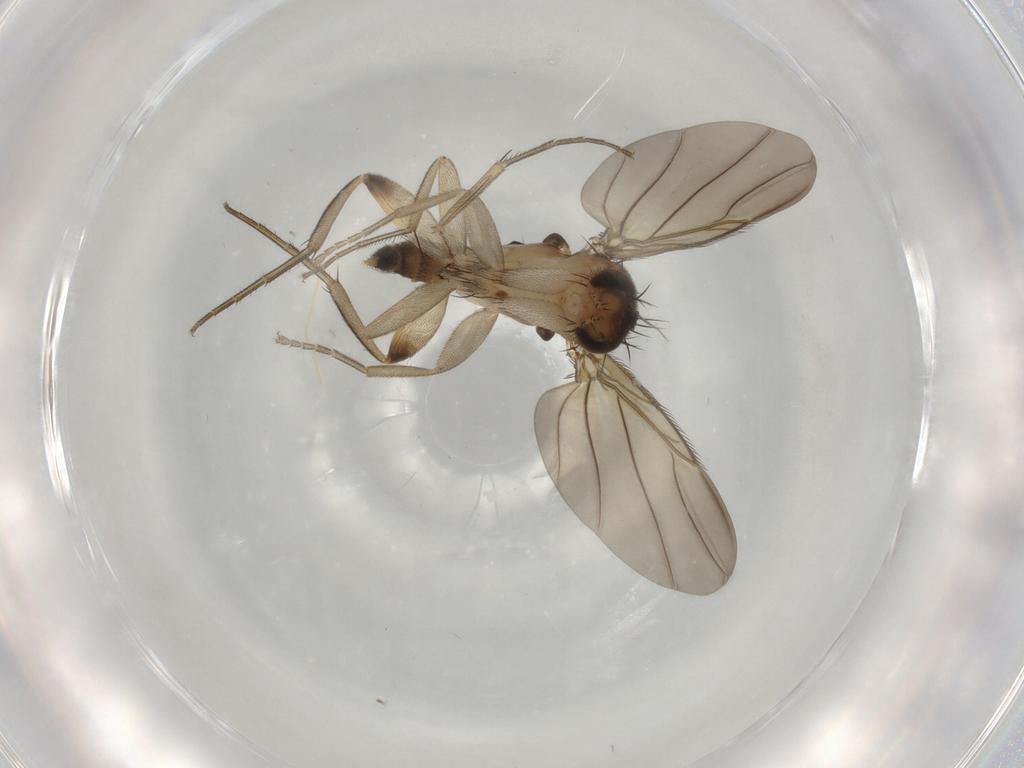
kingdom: Animalia
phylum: Arthropoda
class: Insecta
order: Diptera
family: Phoridae
